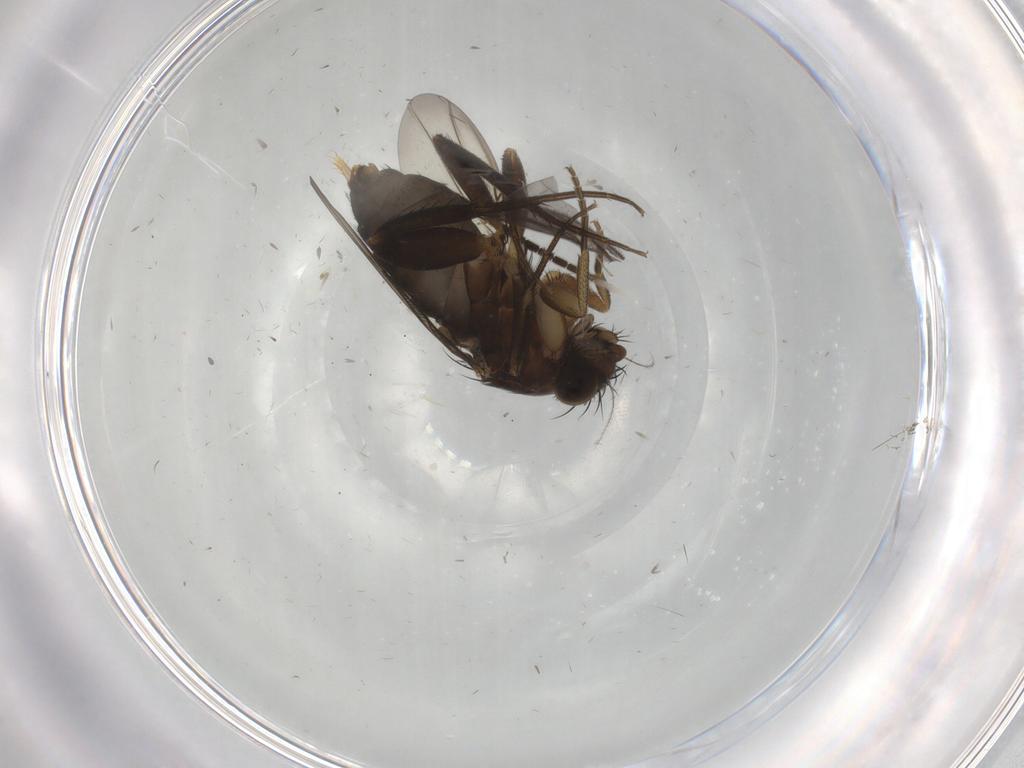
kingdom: Animalia
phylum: Arthropoda
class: Insecta
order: Diptera
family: Phoridae
